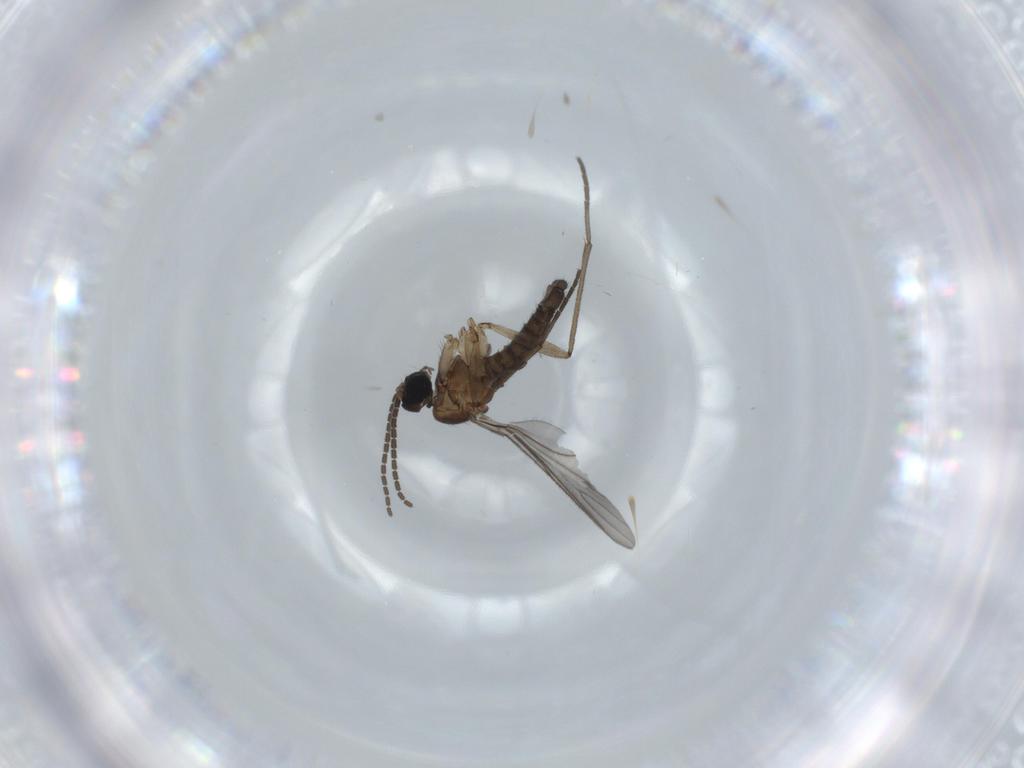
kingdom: Animalia
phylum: Arthropoda
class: Insecta
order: Diptera
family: Sciaridae
